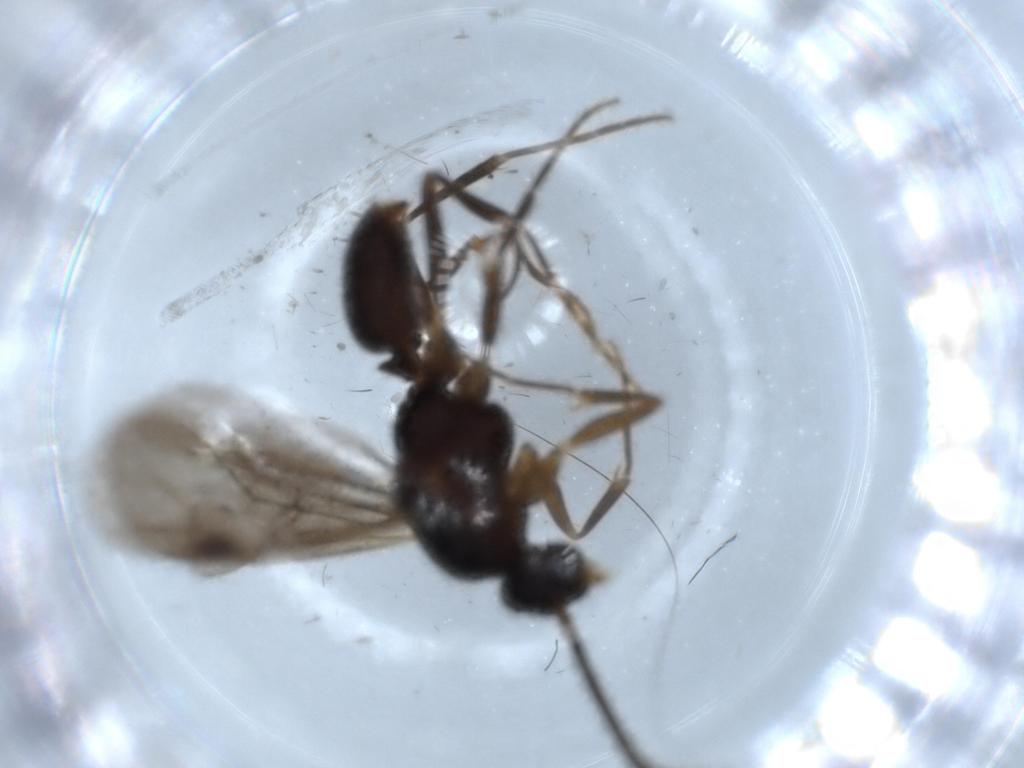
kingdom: Animalia
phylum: Arthropoda
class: Insecta
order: Hymenoptera
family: Formicidae
